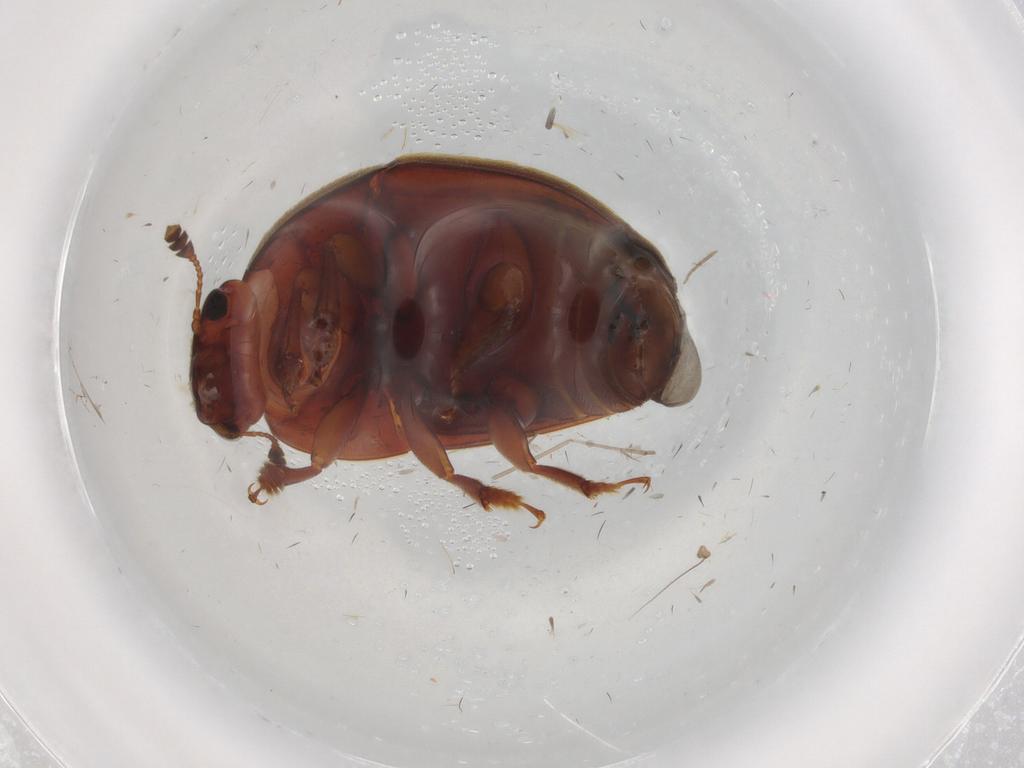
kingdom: Animalia
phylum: Arthropoda
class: Insecta
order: Coleoptera
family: Nitidulidae
